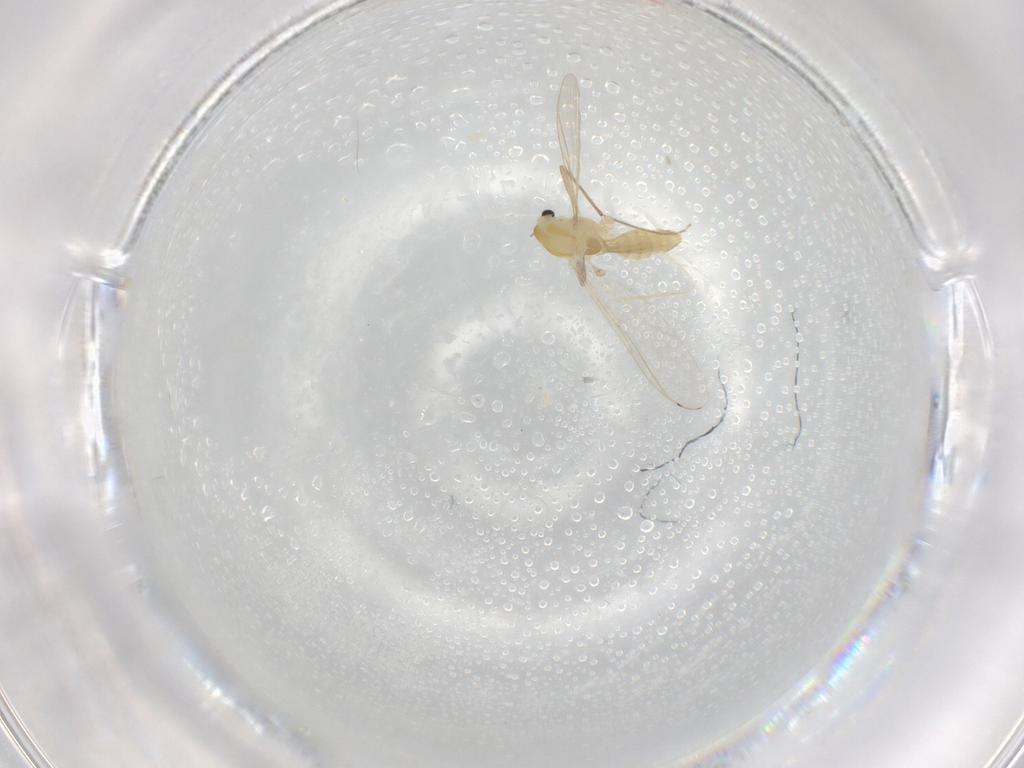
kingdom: Animalia
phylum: Arthropoda
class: Insecta
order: Diptera
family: Chironomidae
